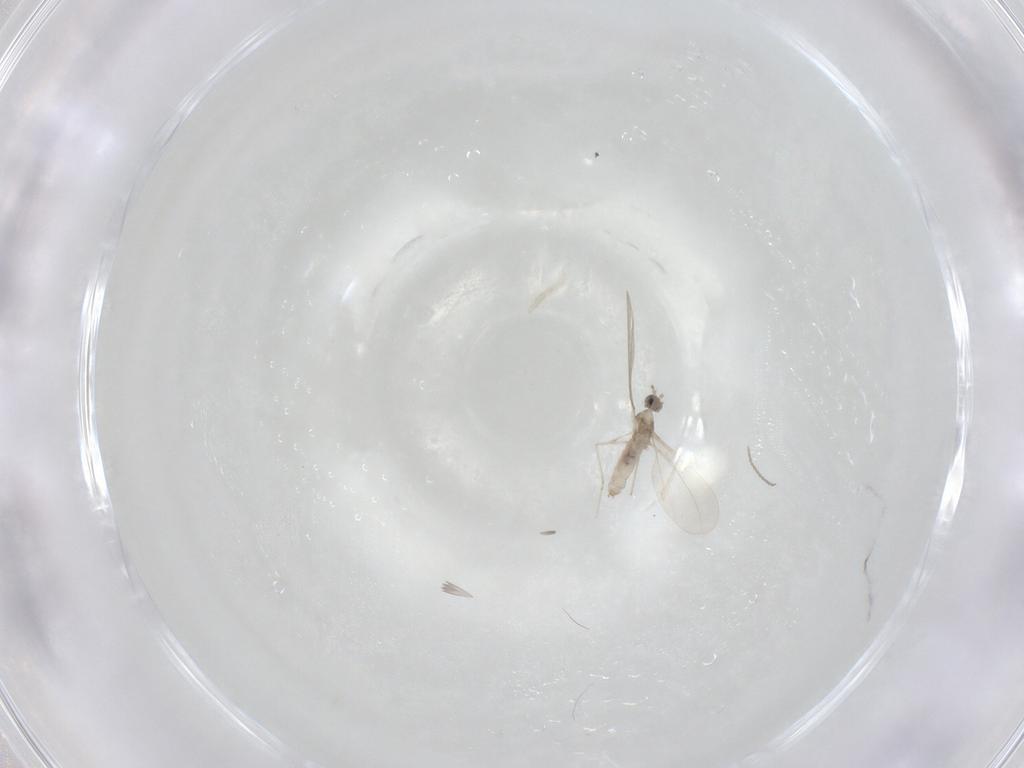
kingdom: Animalia
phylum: Arthropoda
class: Insecta
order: Diptera
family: Cecidomyiidae
